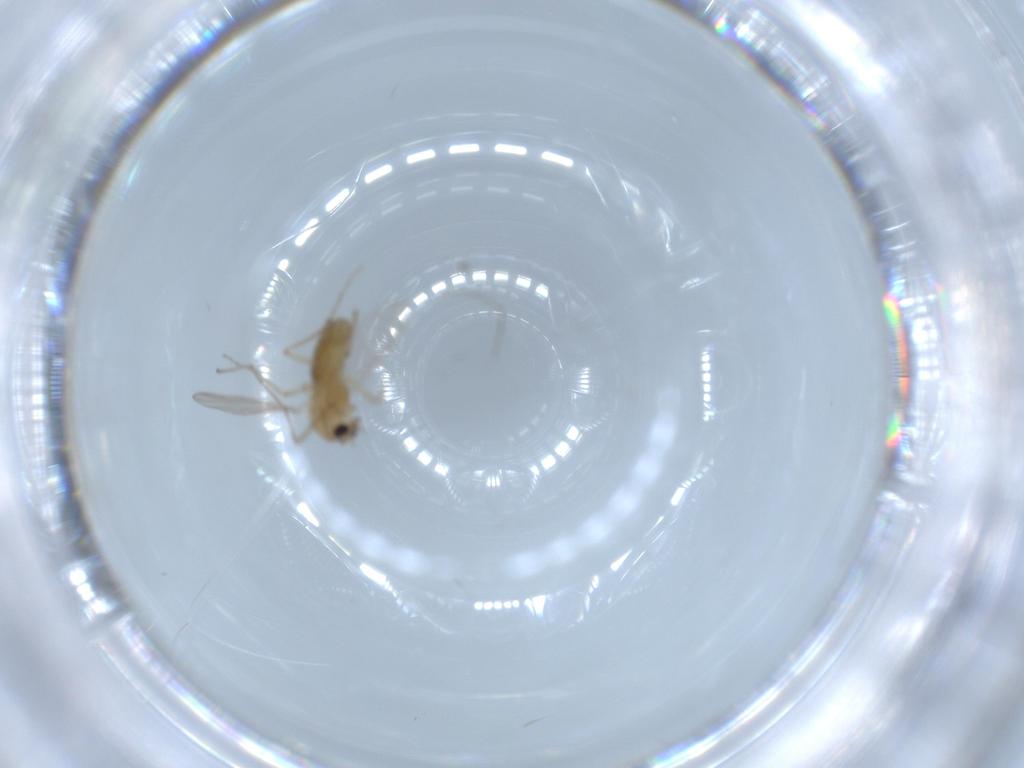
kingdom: Animalia
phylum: Arthropoda
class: Insecta
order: Diptera
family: Chironomidae
